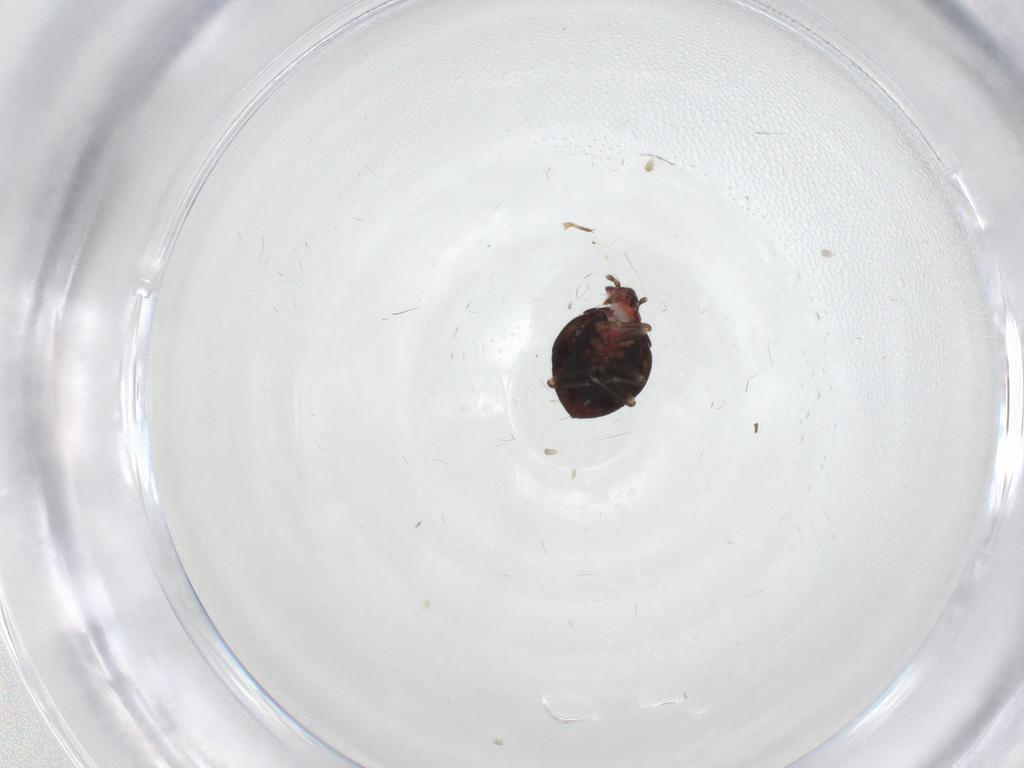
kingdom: Animalia
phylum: Arthropoda
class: Insecta
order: Hemiptera
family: Schizopteridae
